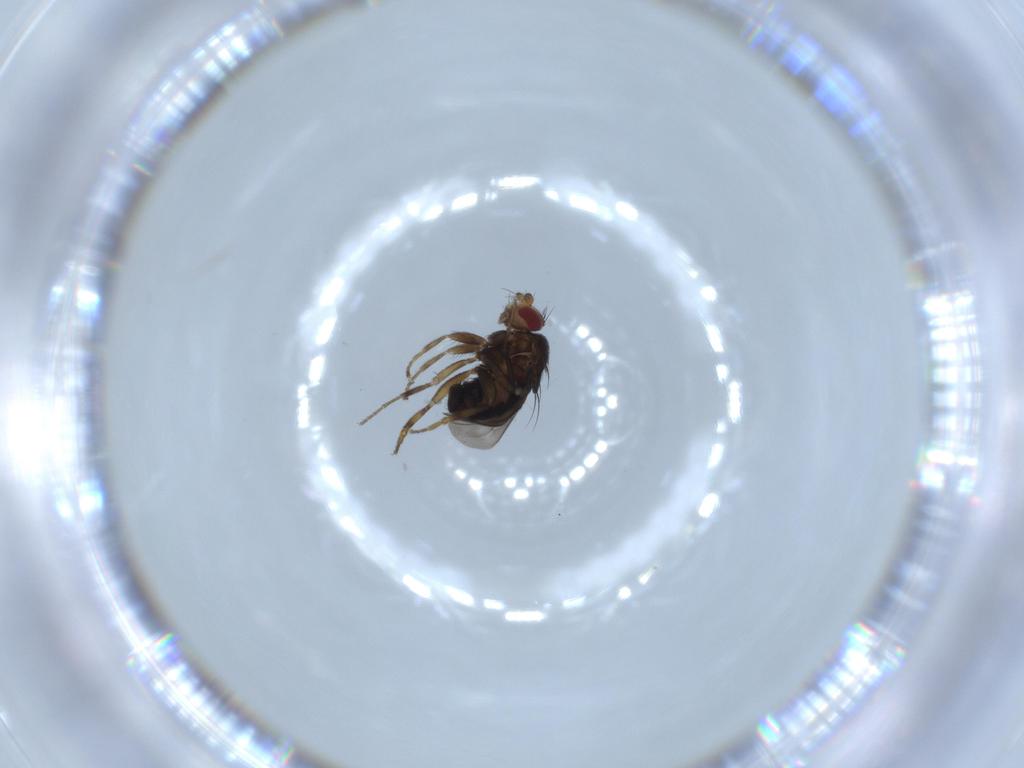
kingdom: Animalia
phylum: Arthropoda
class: Insecta
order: Diptera
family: Sphaeroceridae
